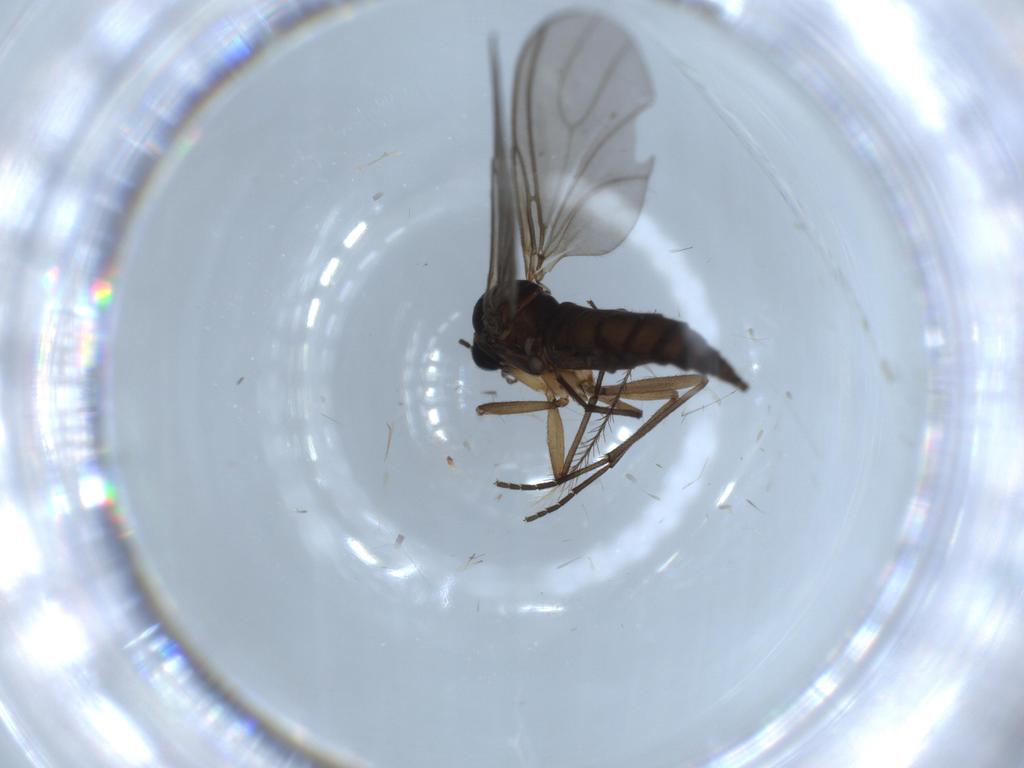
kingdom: Animalia
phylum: Arthropoda
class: Insecta
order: Diptera
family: Sciaridae
